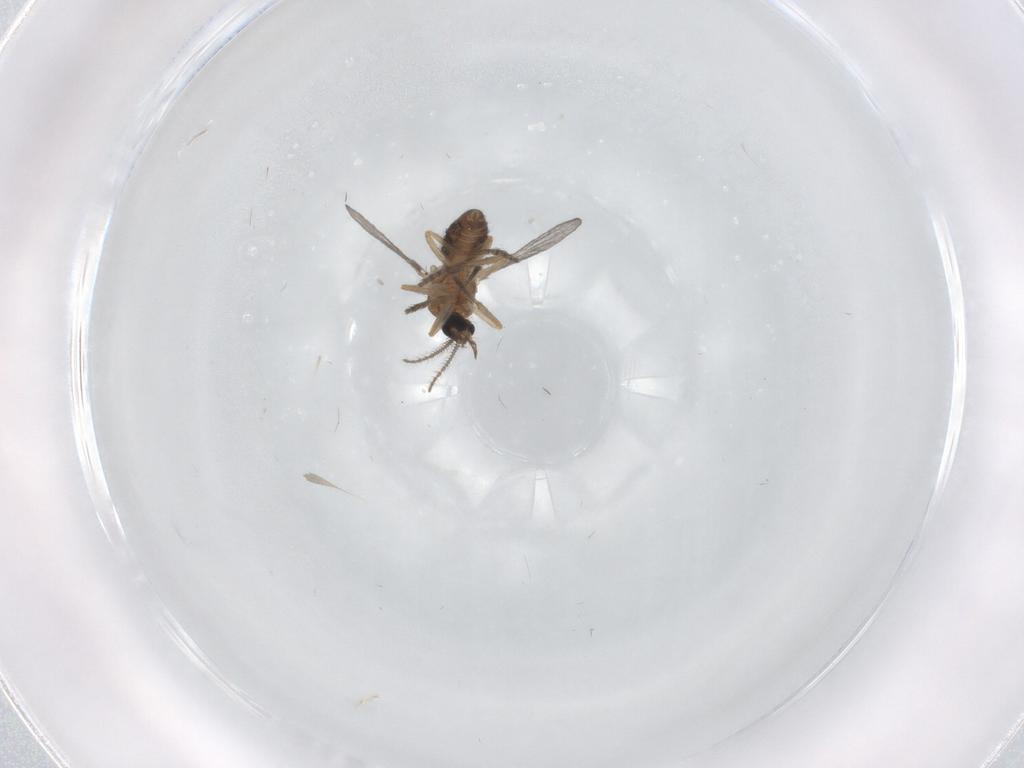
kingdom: Animalia
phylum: Arthropoda
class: Insecta
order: Diptera
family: Ceratopogonidae
